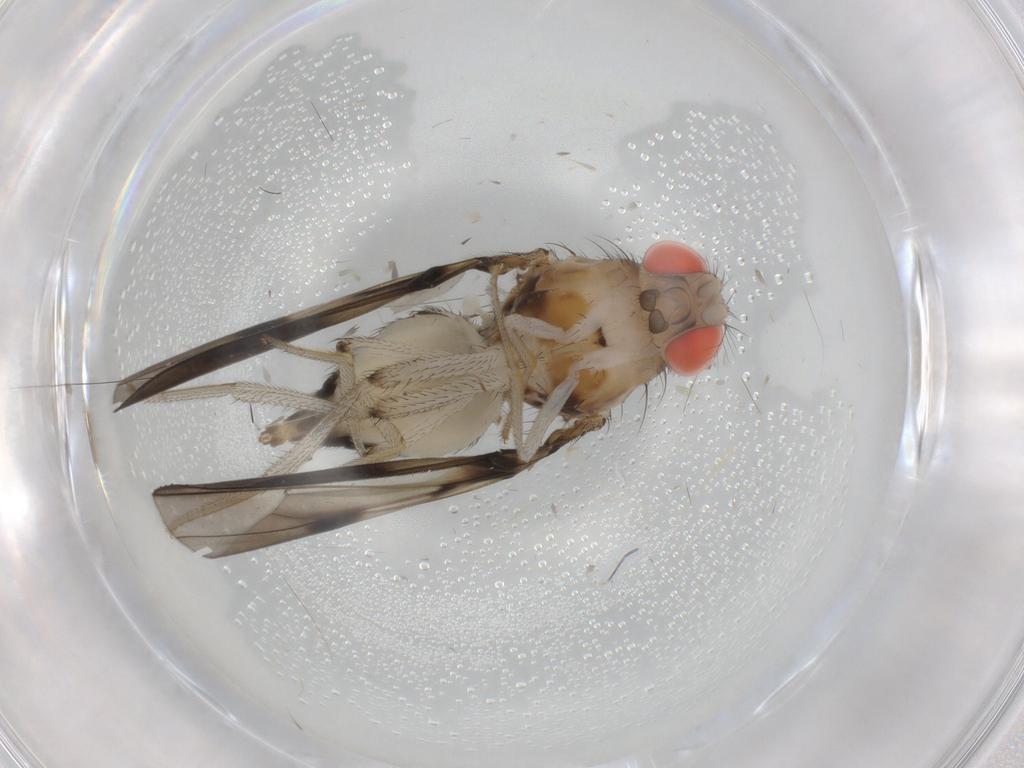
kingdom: Animalia
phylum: Arthropoda
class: Insecta
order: Diptera
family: Drosophilidae
